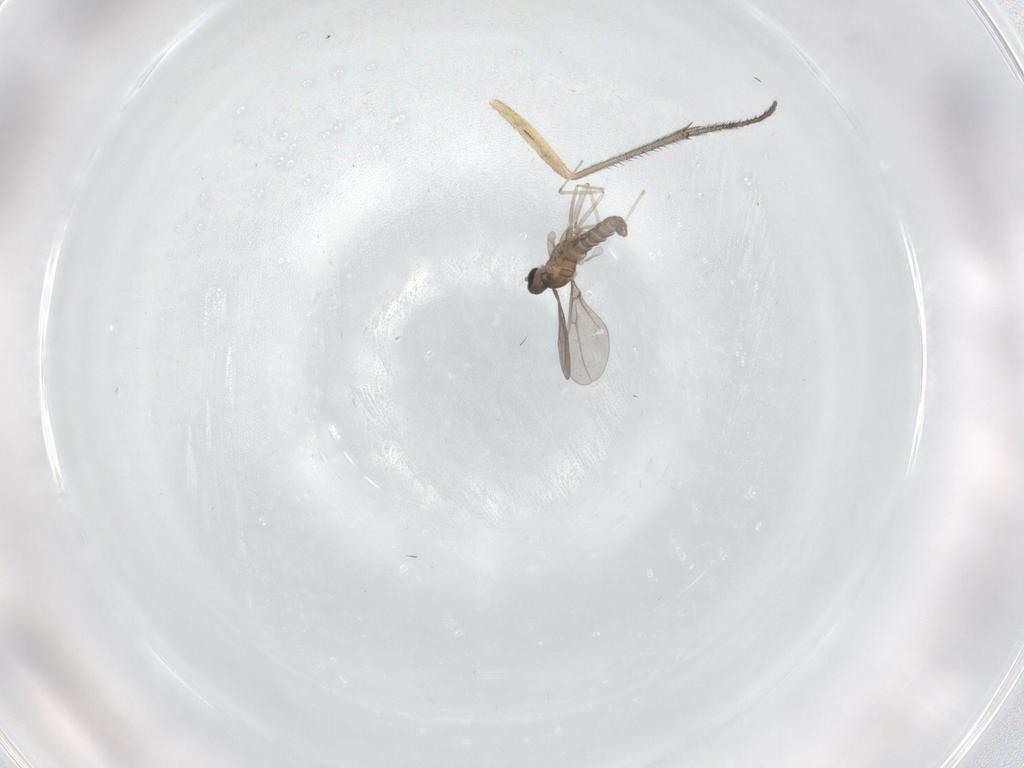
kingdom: Animalia
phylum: Arthropoda
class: Insecta
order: Diptera
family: Sciaridae
